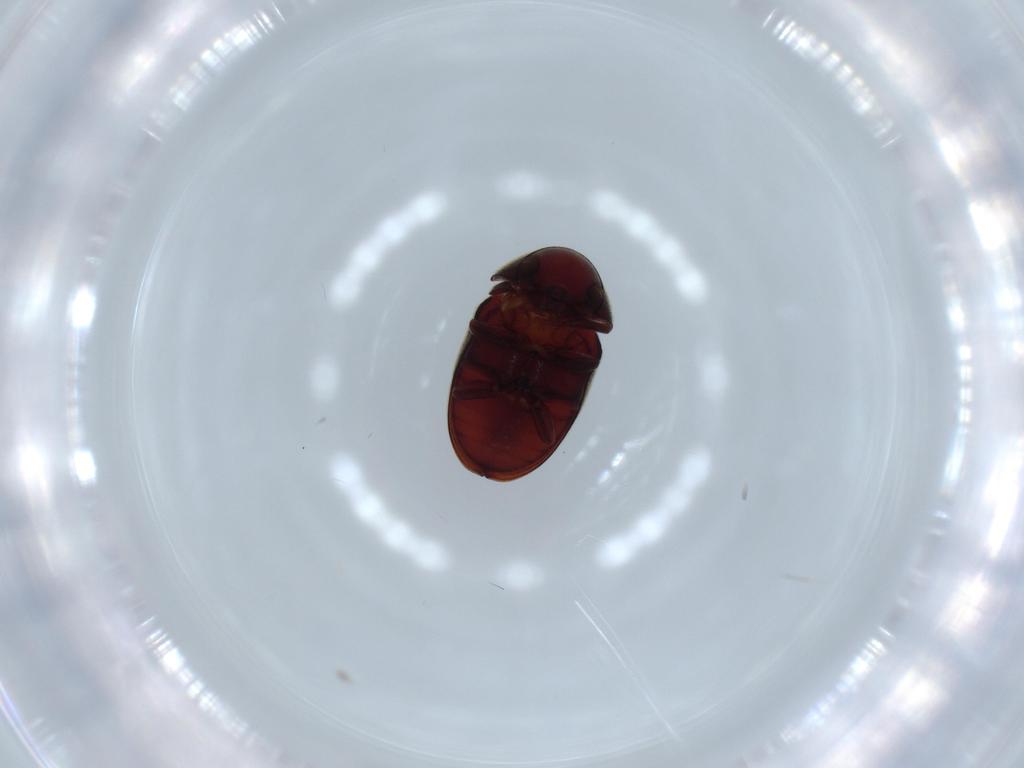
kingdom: Animalia
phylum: Arthropoda
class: Insecta
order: Coleoptera
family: Ptinidae
